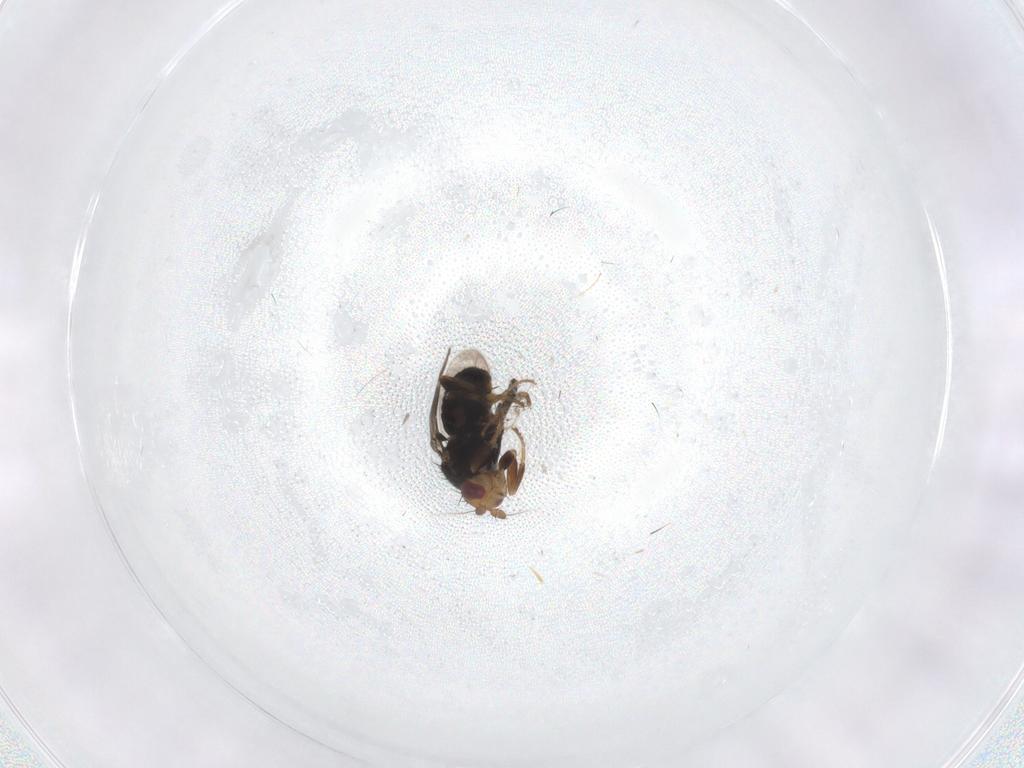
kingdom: Animalia
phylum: Arthropoda
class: Insecta
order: Diptera
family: Sphaeroceridae
